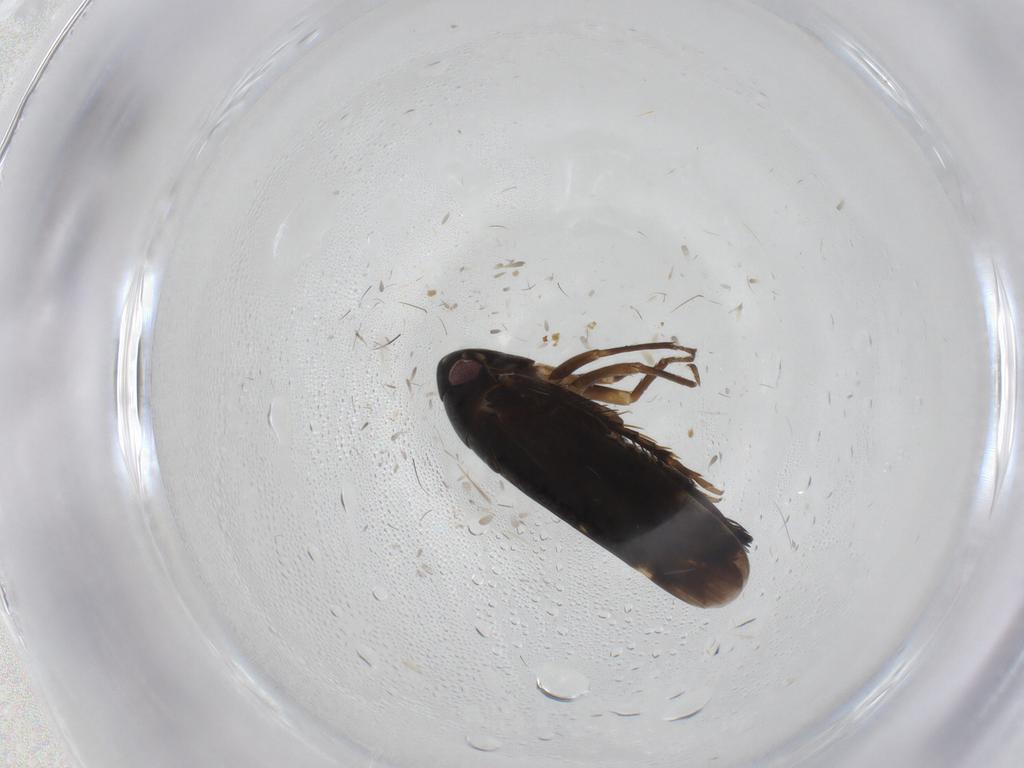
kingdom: Animalia
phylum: Arthropoda
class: Insecta
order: Hemiptera
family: Cicadellidae
